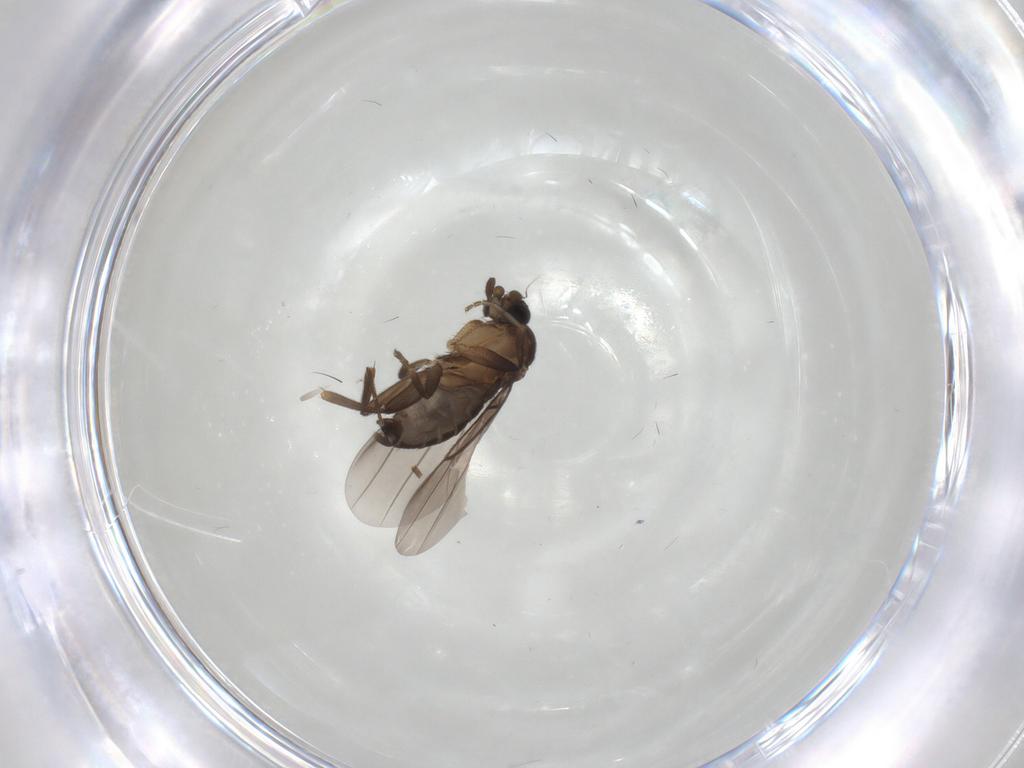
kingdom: Animalia
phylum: Arthropoda
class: Insecta
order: Diptera
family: Phoridae
